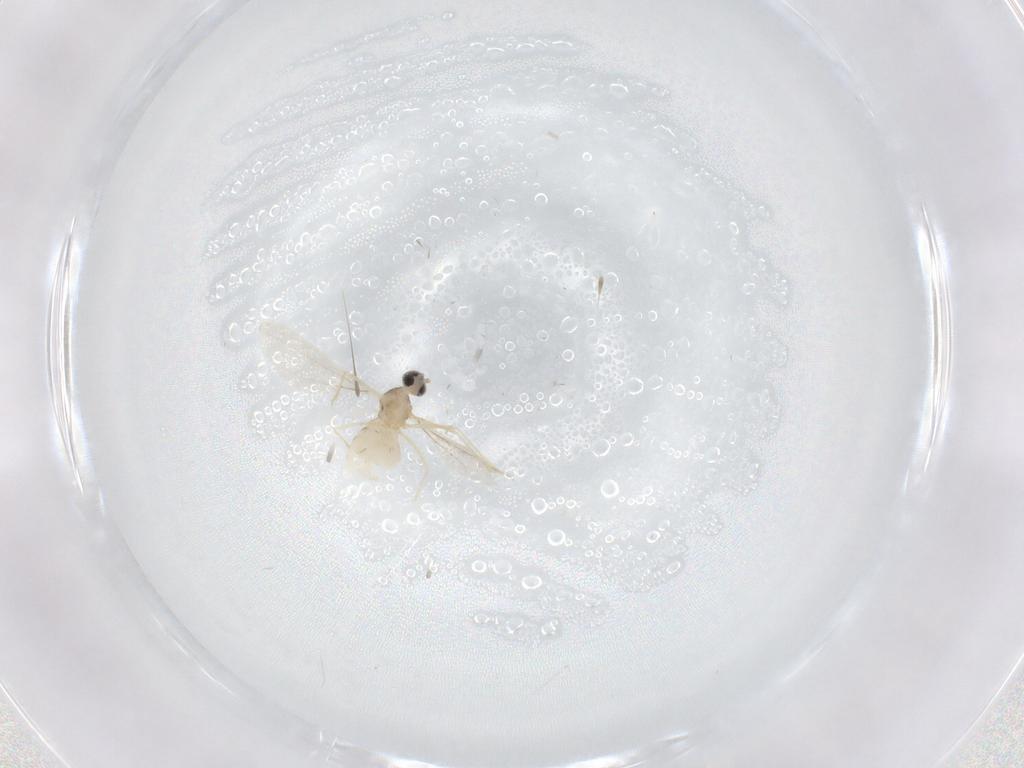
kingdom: Animalia
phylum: Arthropoda
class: Insecta
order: Diptera
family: Cecidomyiidae
